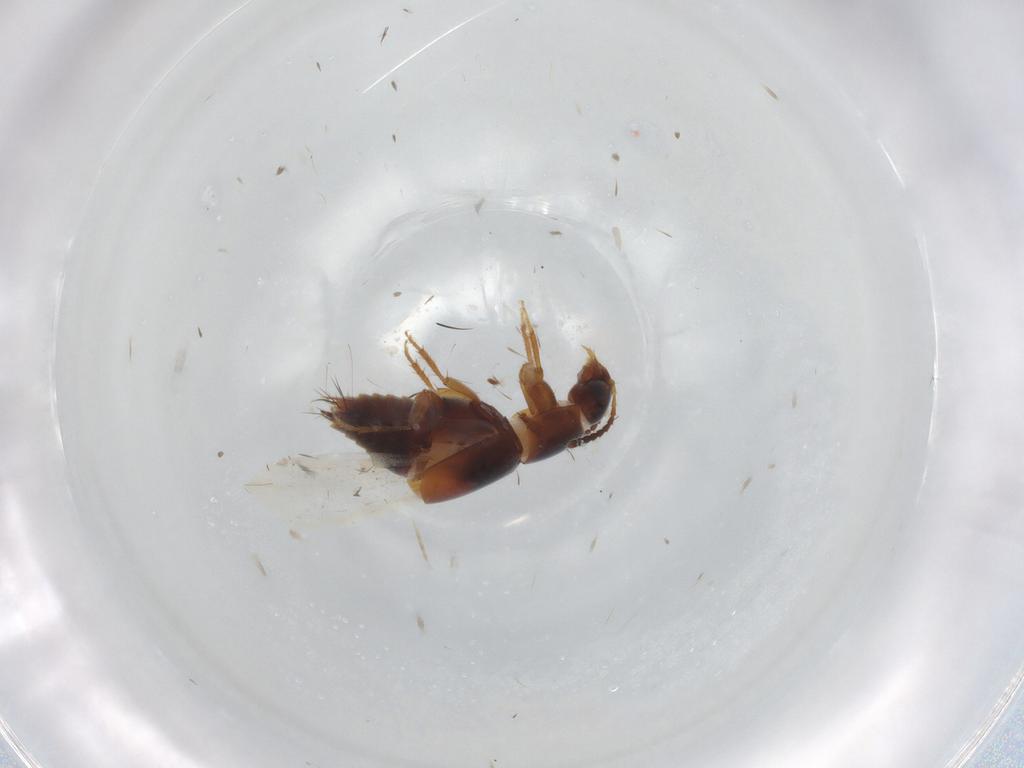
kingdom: Animalia
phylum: Arthropoda
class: Insecta
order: Coleoptera
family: Staphylinidae
